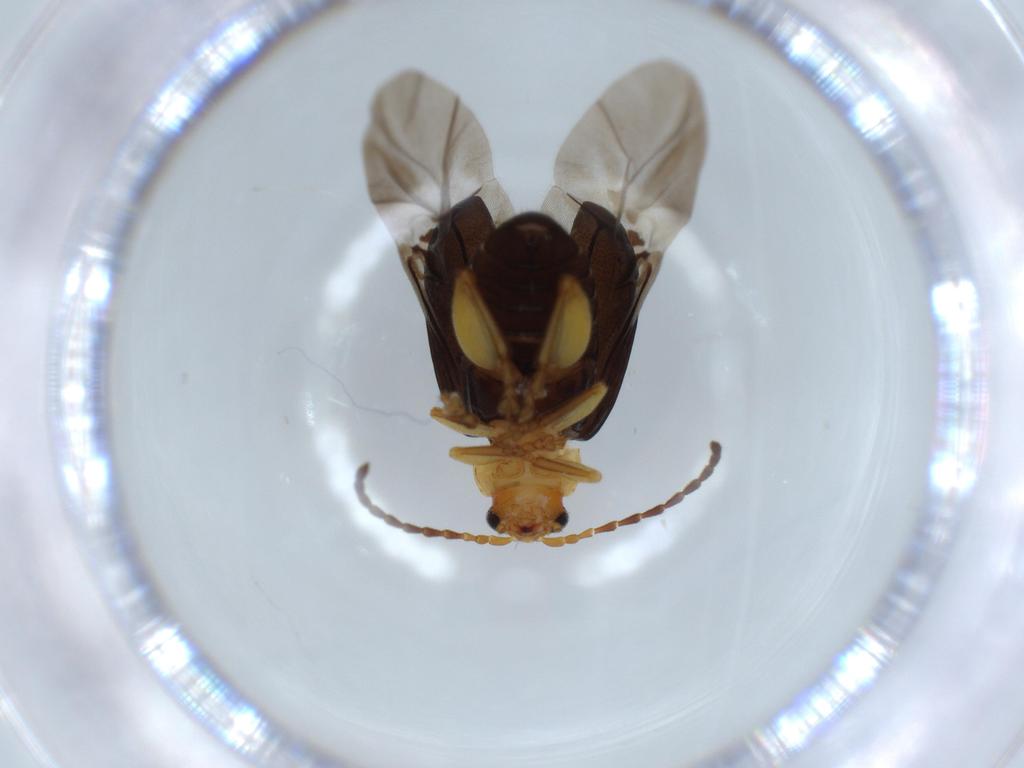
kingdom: Animalia
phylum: Arthropoda
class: Insecta
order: Coleoptera
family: Chrysomelidae
